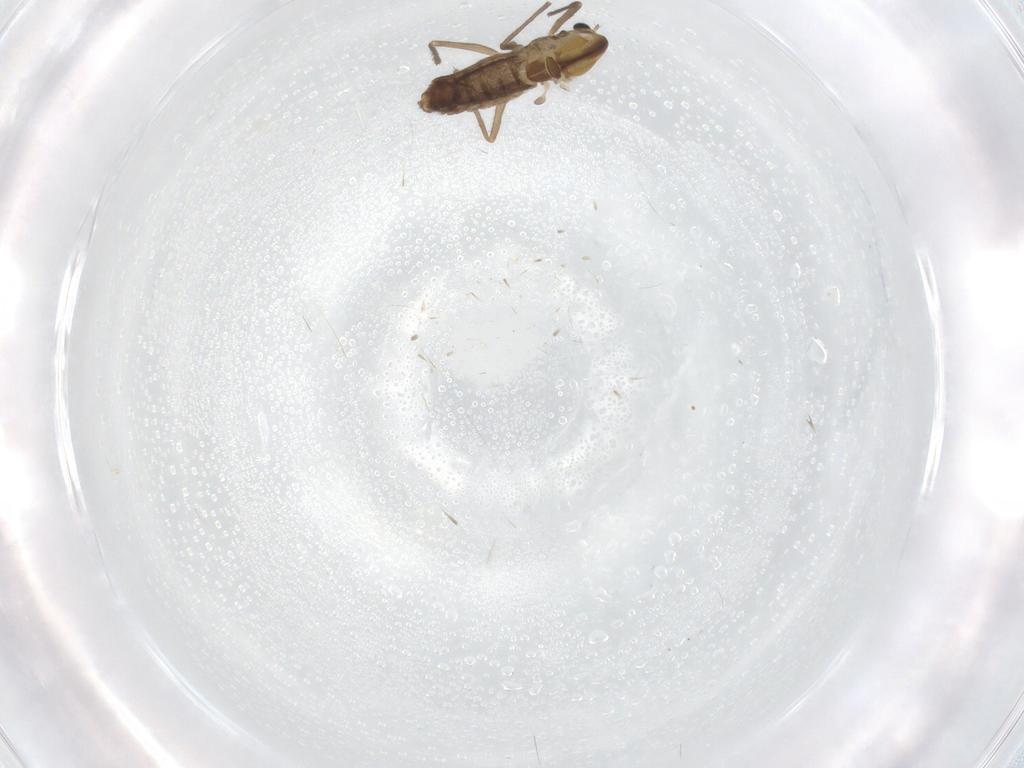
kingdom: Animalia
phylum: Arthropoda
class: Insecta
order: Diptera
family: Chironomidae
